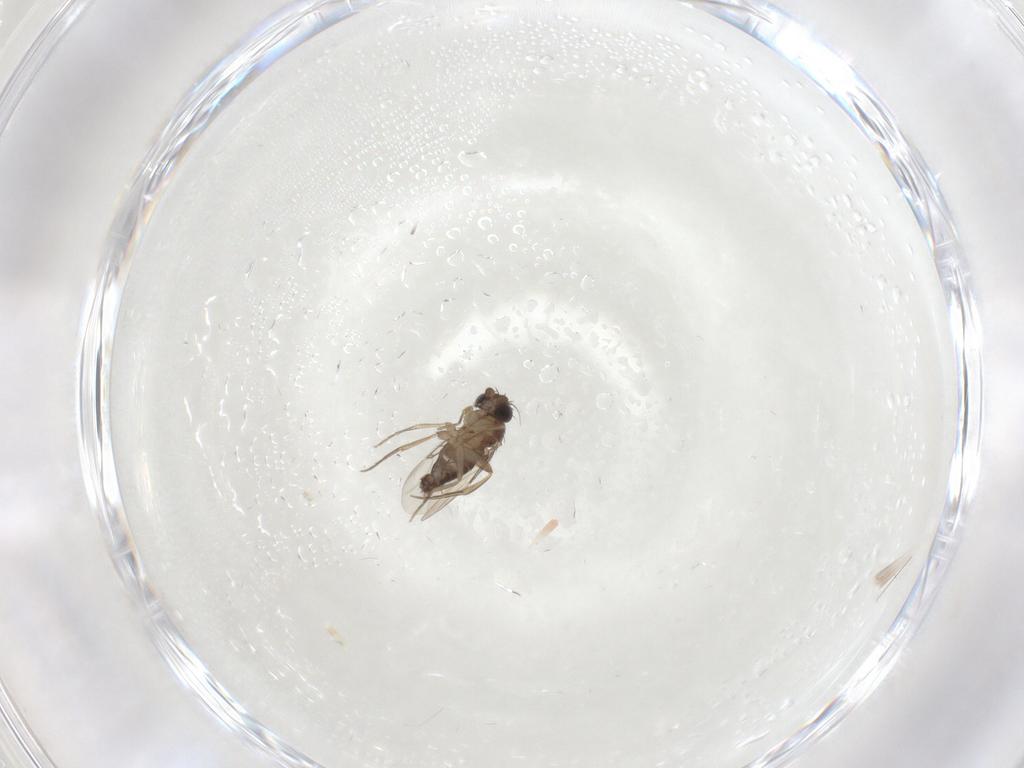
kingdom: Animalia
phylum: Arthropoda
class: Insecta
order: Diptera
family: Phoridae
